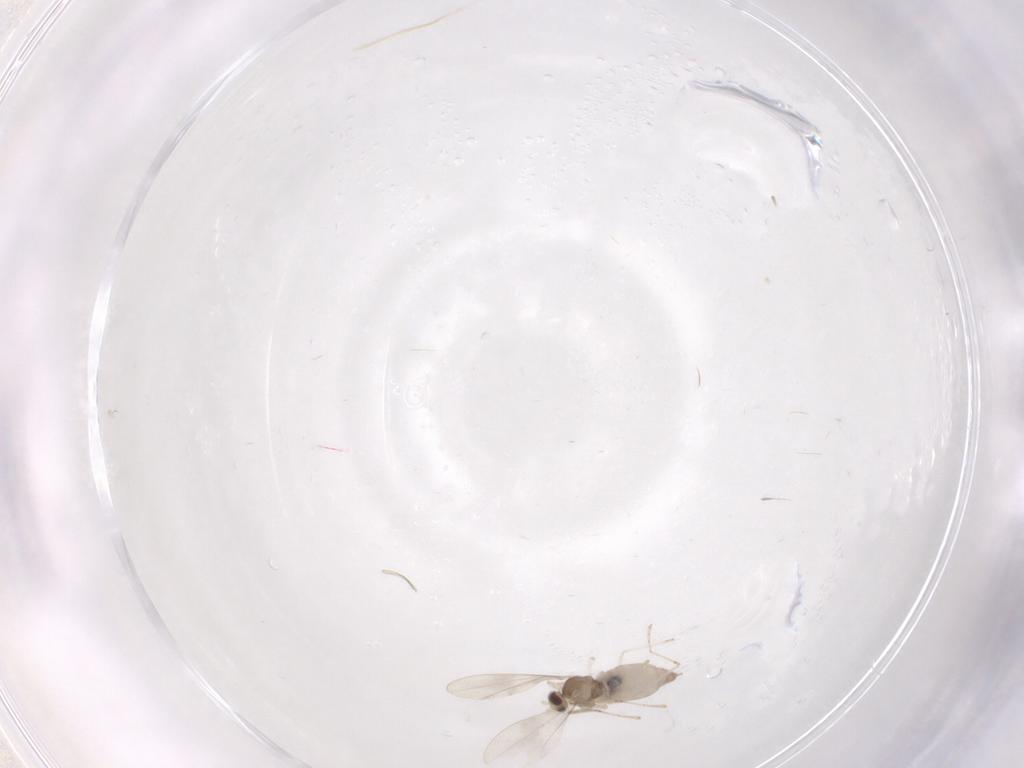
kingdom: Animalia
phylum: Arthropoda
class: Insecta
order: Diptera
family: Cecidomyiidae
